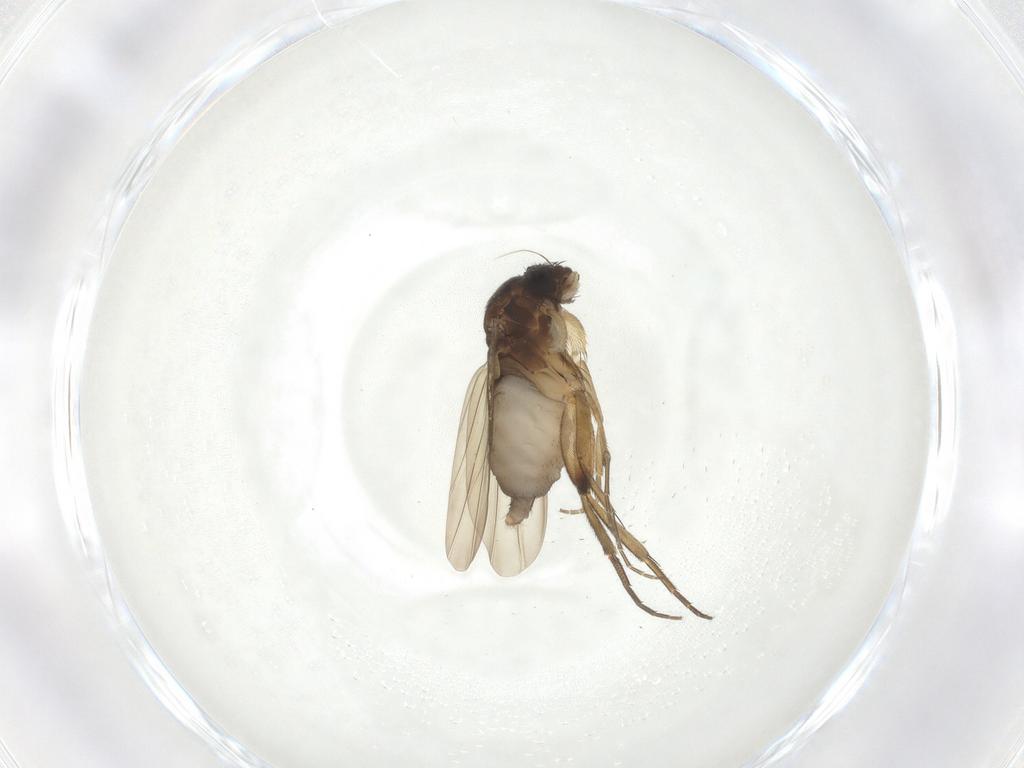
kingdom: Animalia
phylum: Arthropoda
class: Insecta
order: Diptera
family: Phoridae
